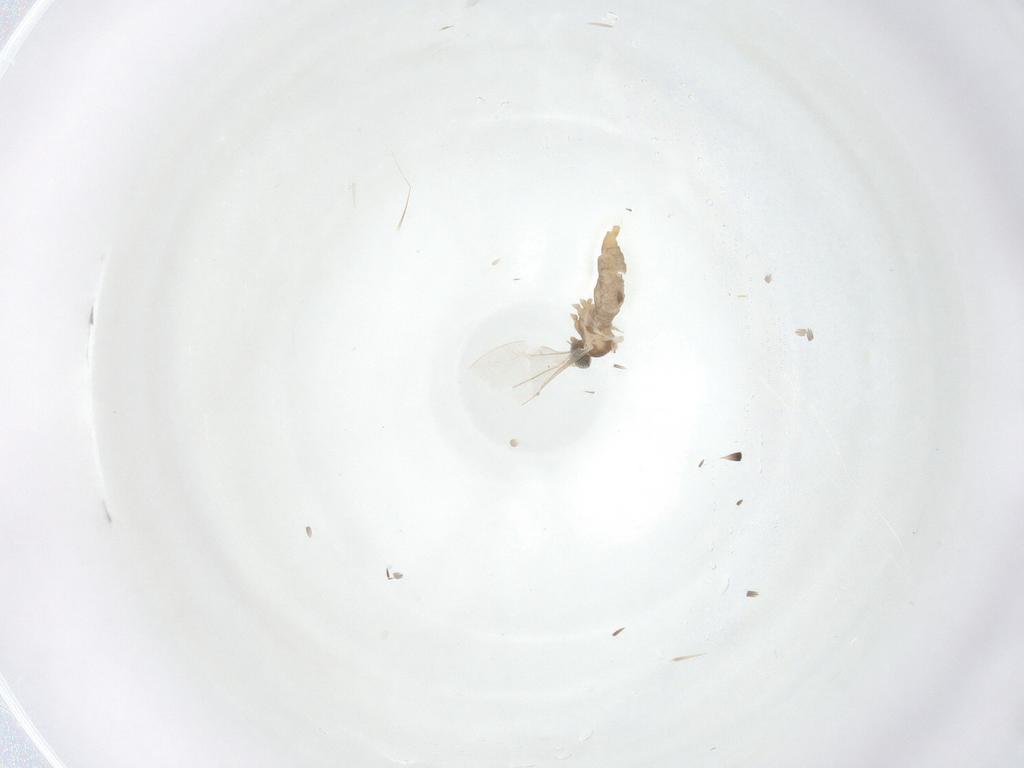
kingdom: Animalia
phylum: Arthropoda
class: Insecta
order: Diptera
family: Cecidomyiidae
